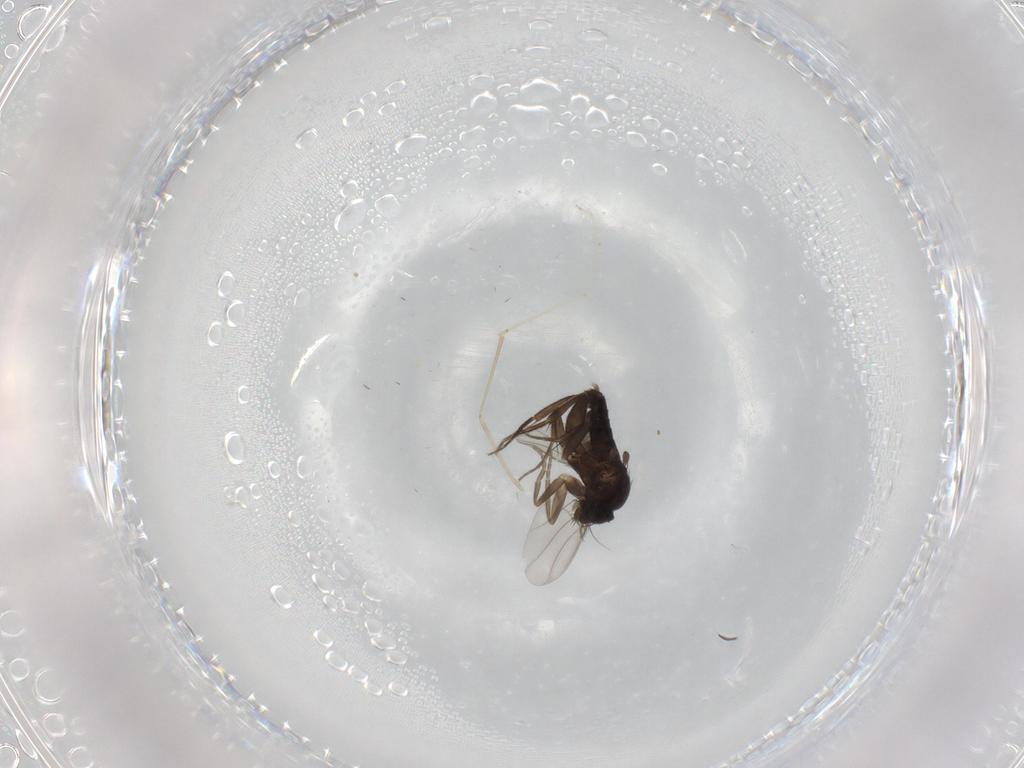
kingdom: Animalia
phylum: Arthropoda
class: Insecta
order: Diptera
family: Cecidomyiidae
